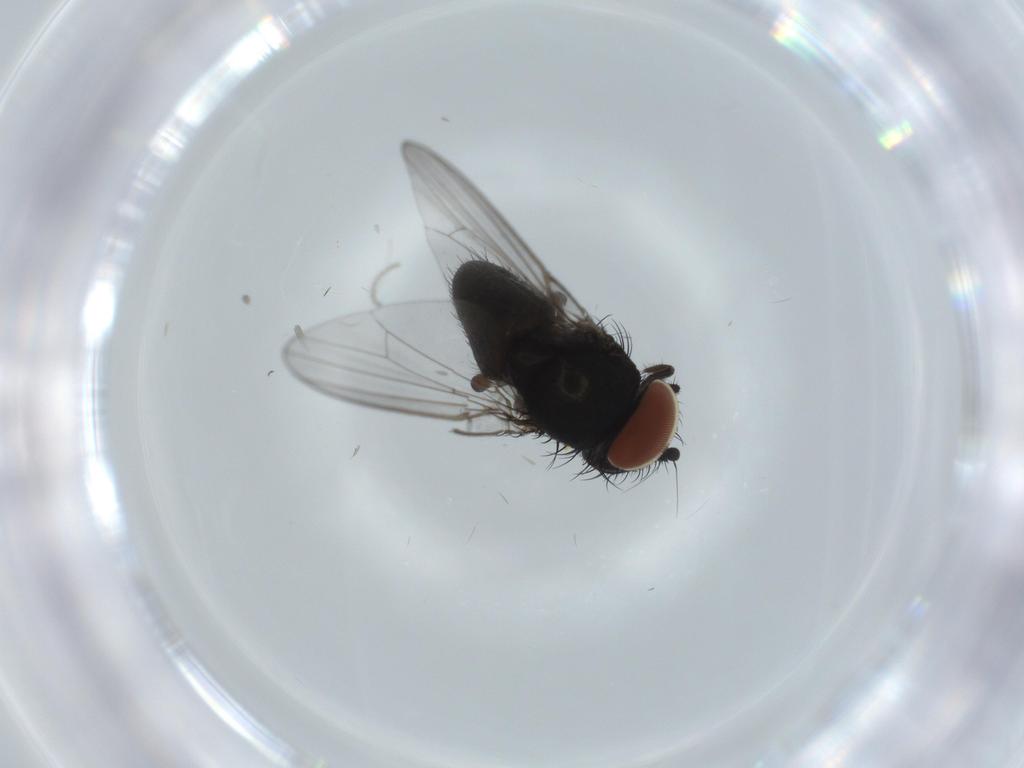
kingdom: Animalia
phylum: Arthropoda
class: Insecta
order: Diptera
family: Milichiidae
